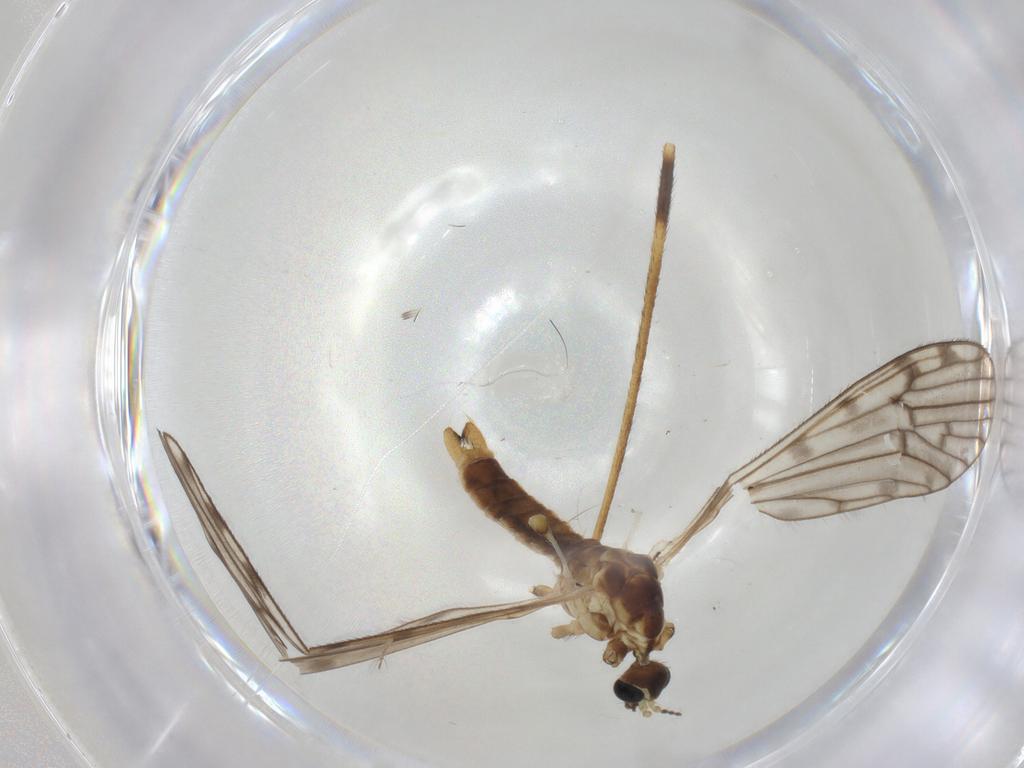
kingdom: Animalia
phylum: Arthropoda
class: Insecta
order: Diptera
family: Limoniidae
